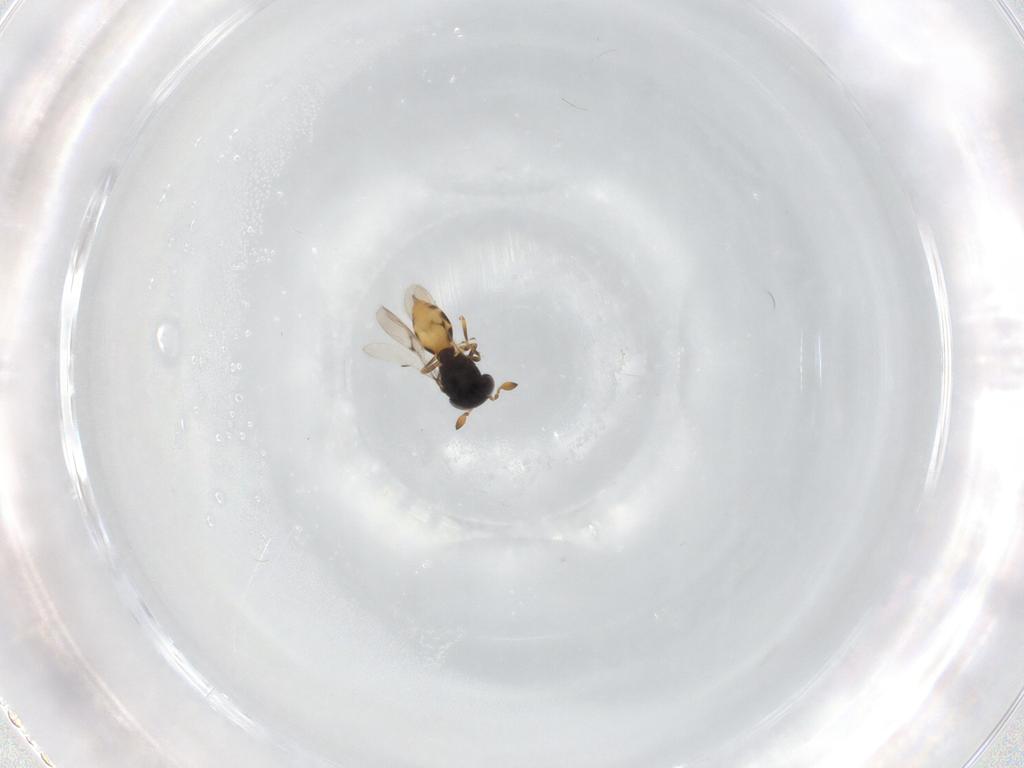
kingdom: Animalia
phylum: Arthropoda
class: Insecta
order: Hymenoptera
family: Scelionidae
